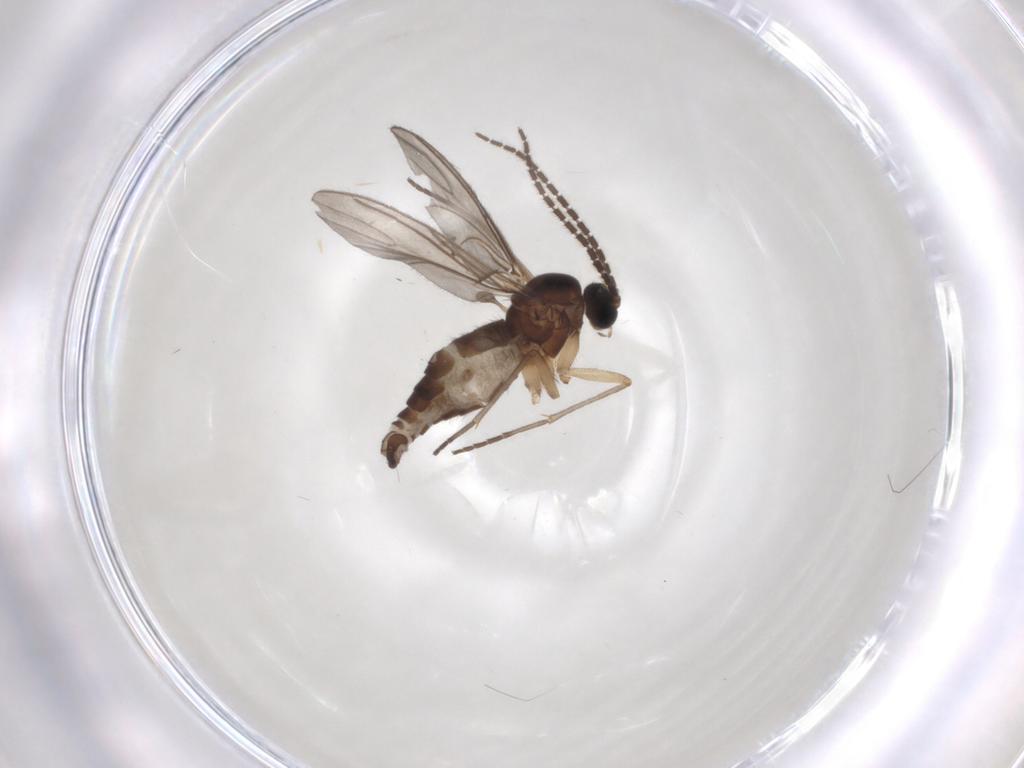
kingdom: Animalia
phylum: Arthropoda
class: Insecta
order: Diptera
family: Sciaridae
